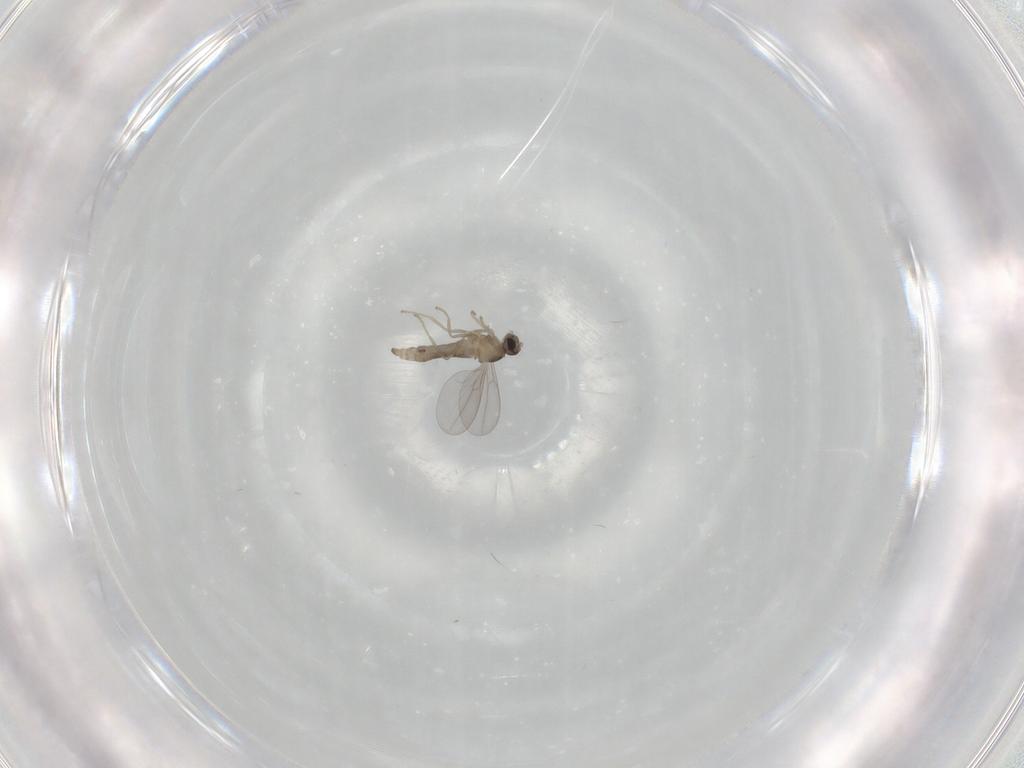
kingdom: Animalia
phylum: Arthropoda
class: Insecta
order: Diptera
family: Cecidomyiidae
